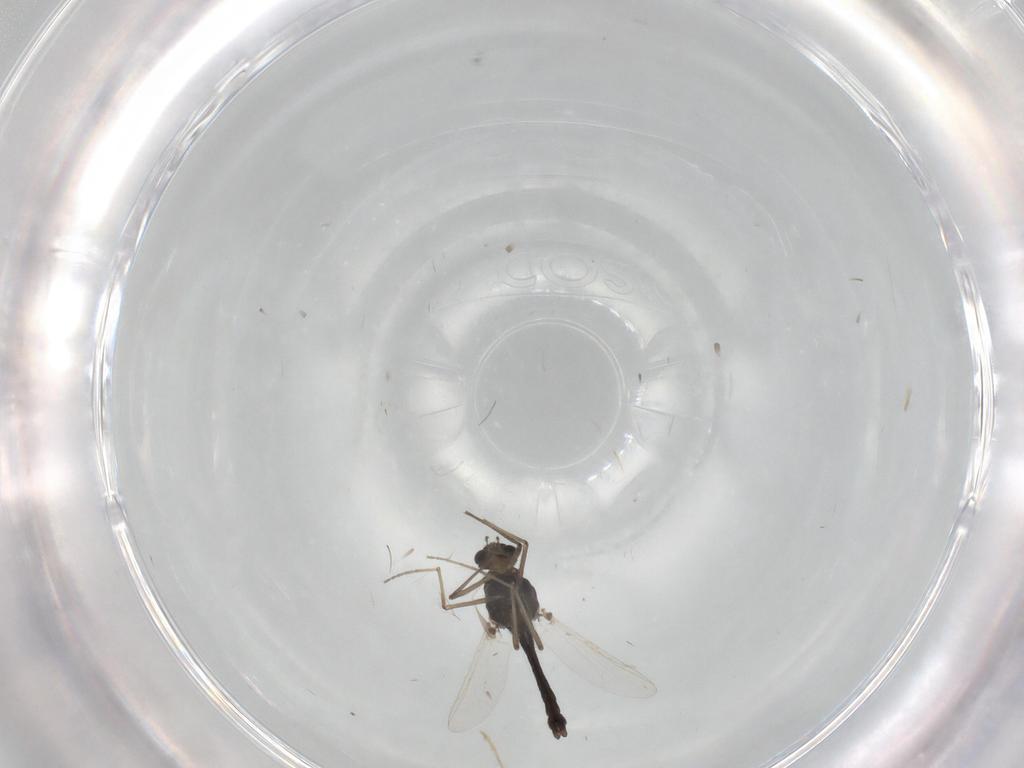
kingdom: Animalia
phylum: Arthropoda
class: Insecta
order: Diptera
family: Chironomidae
